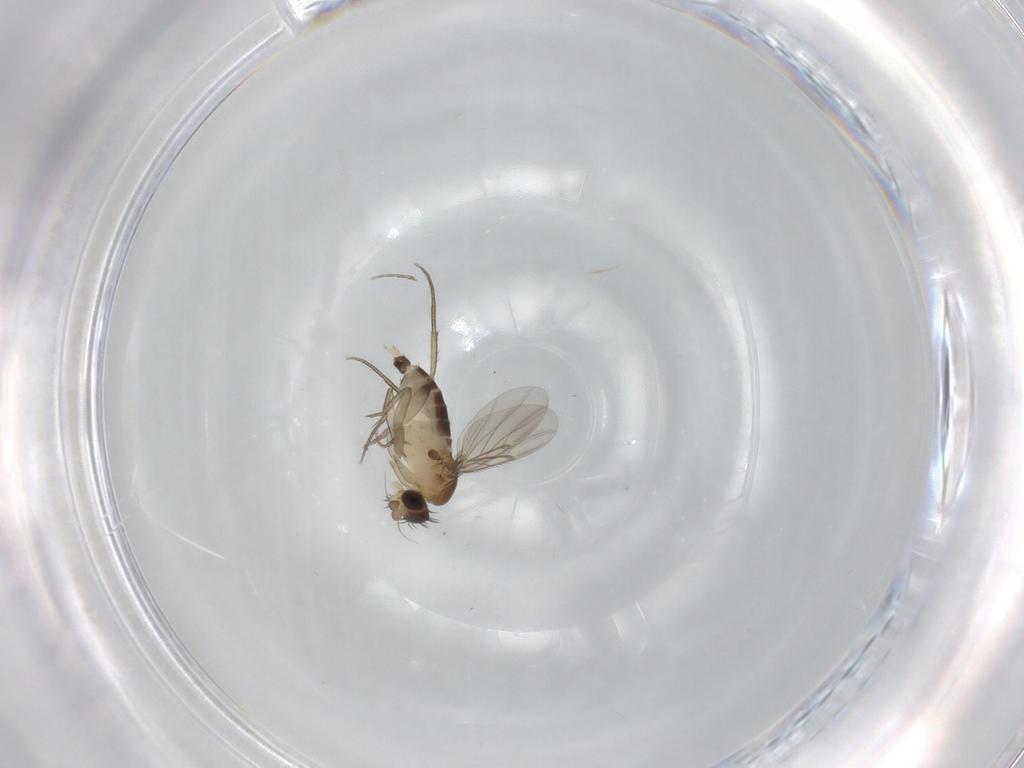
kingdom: Animalia
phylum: Arthropoda
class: Insecta
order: Diptera
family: Phoridae
